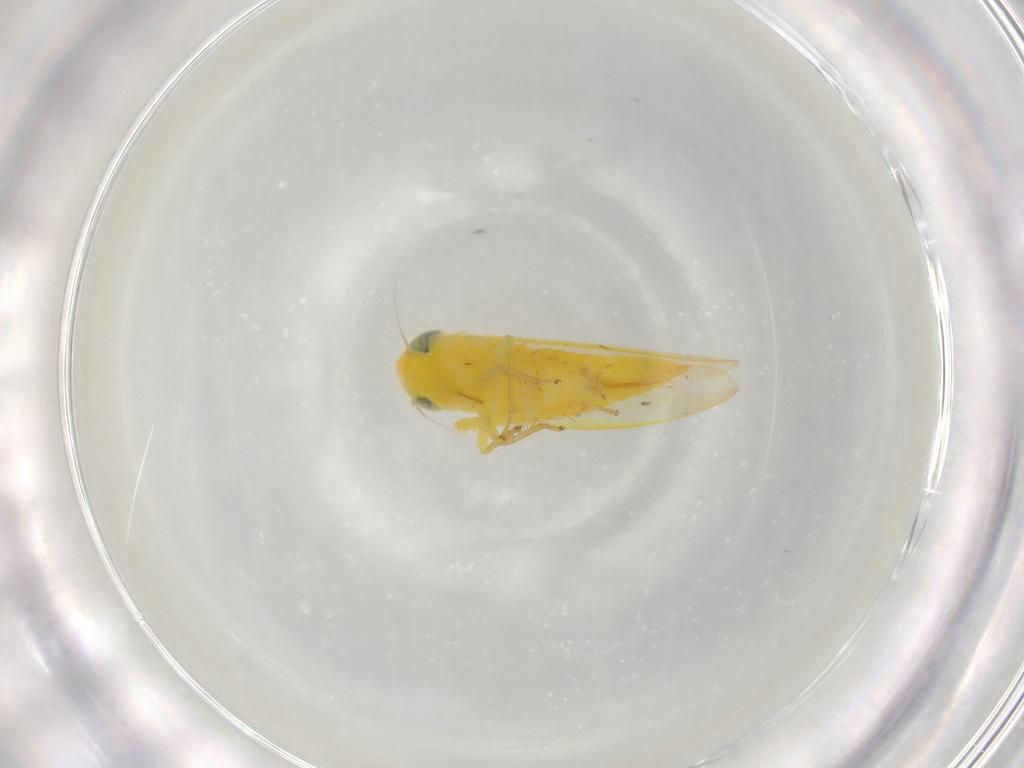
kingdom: Animalia
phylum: Arthropoda
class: Insecta
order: Hemiptera
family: Cicadellidae
